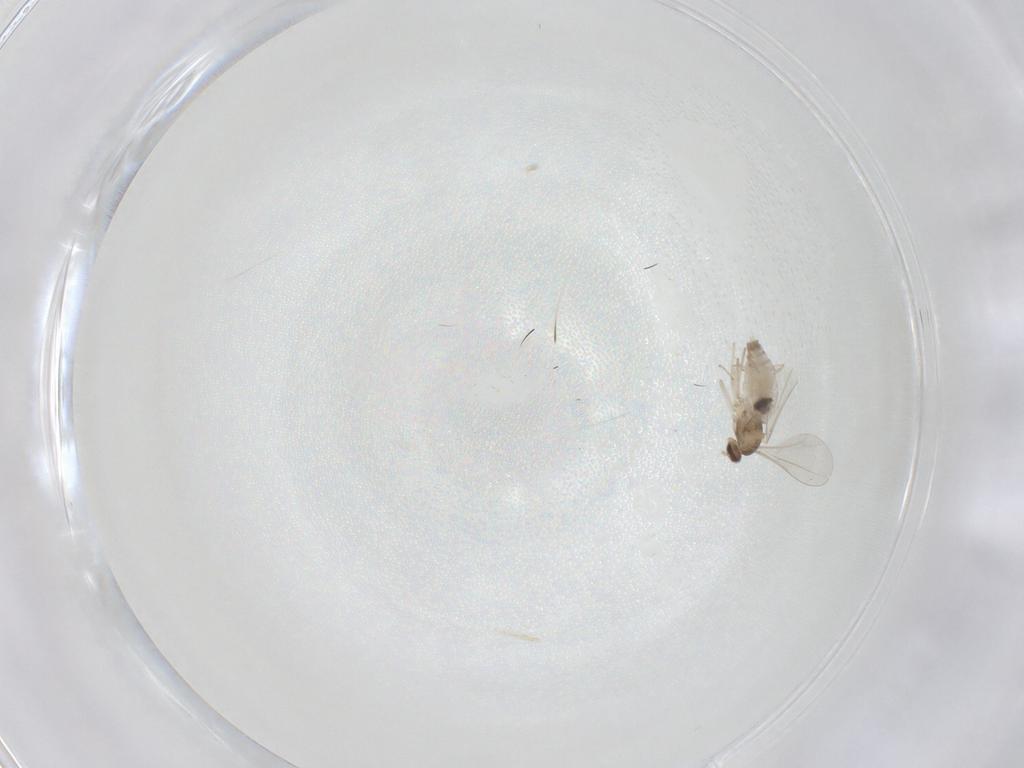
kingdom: Animalia
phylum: Arthropoda
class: Insecta
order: Diptera
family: Cecidomyiidae
